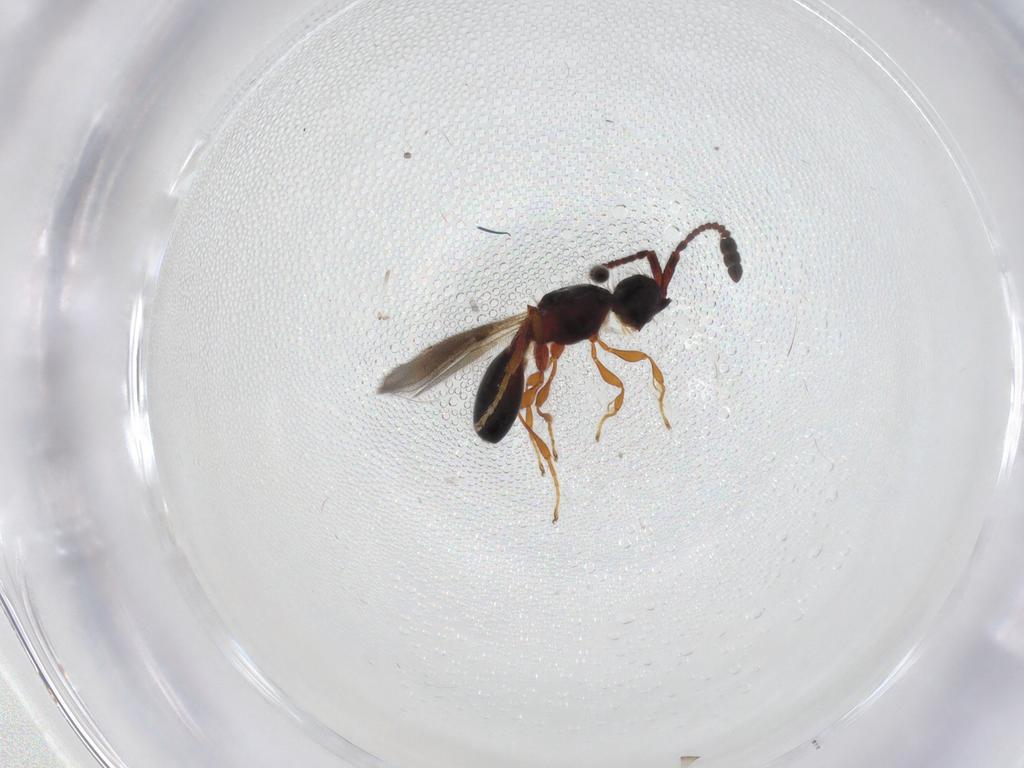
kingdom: Animalia
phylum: Arthropoda
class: Insecta
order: Hymenoptera
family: Diapriidae
